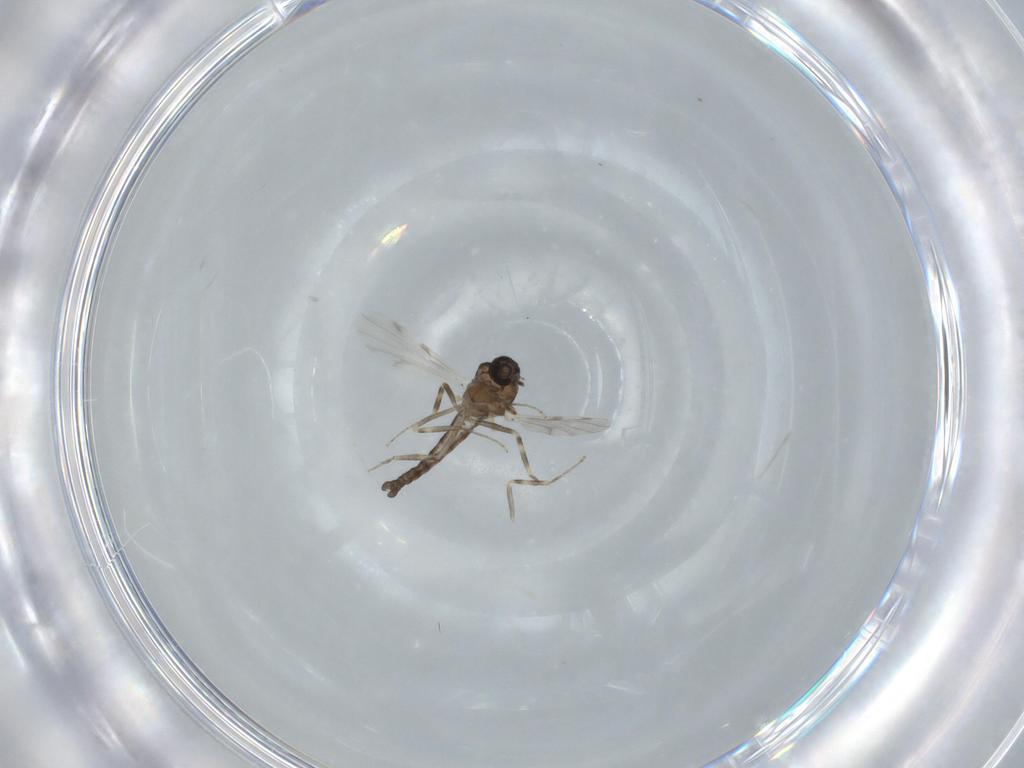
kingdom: Animalia
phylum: Arthropoda
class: Insecta
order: Diptera
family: Ceratopogonidae
